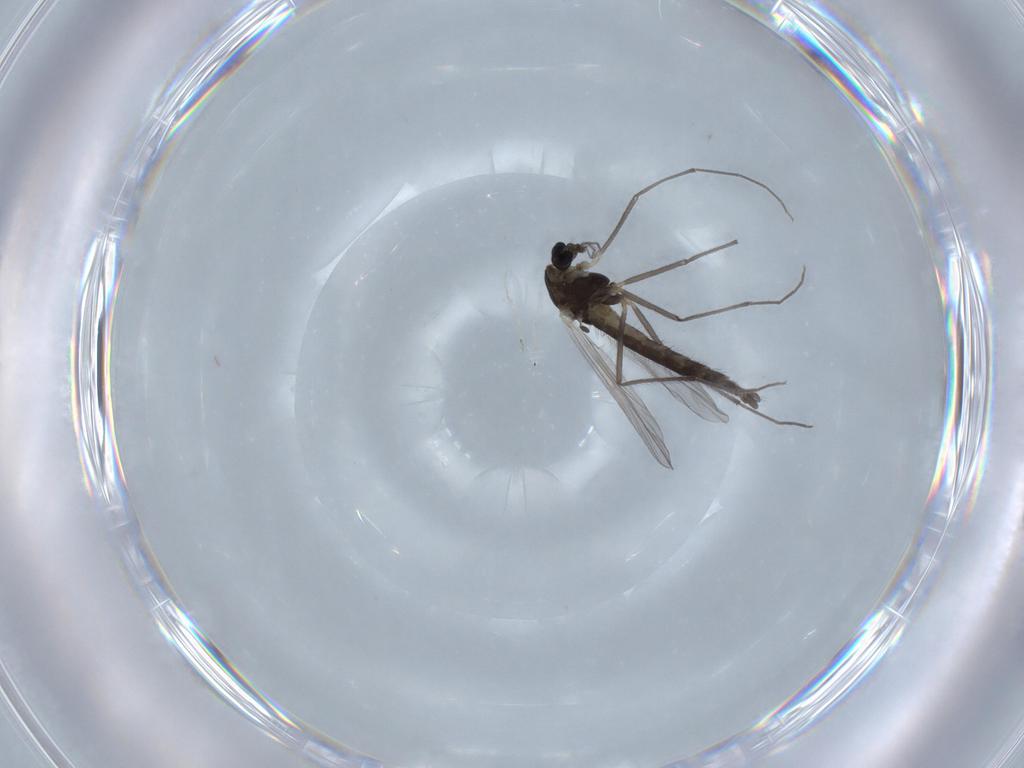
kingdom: Animalia
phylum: Arthropoda
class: Insecta
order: Diptera
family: Chironomidae
